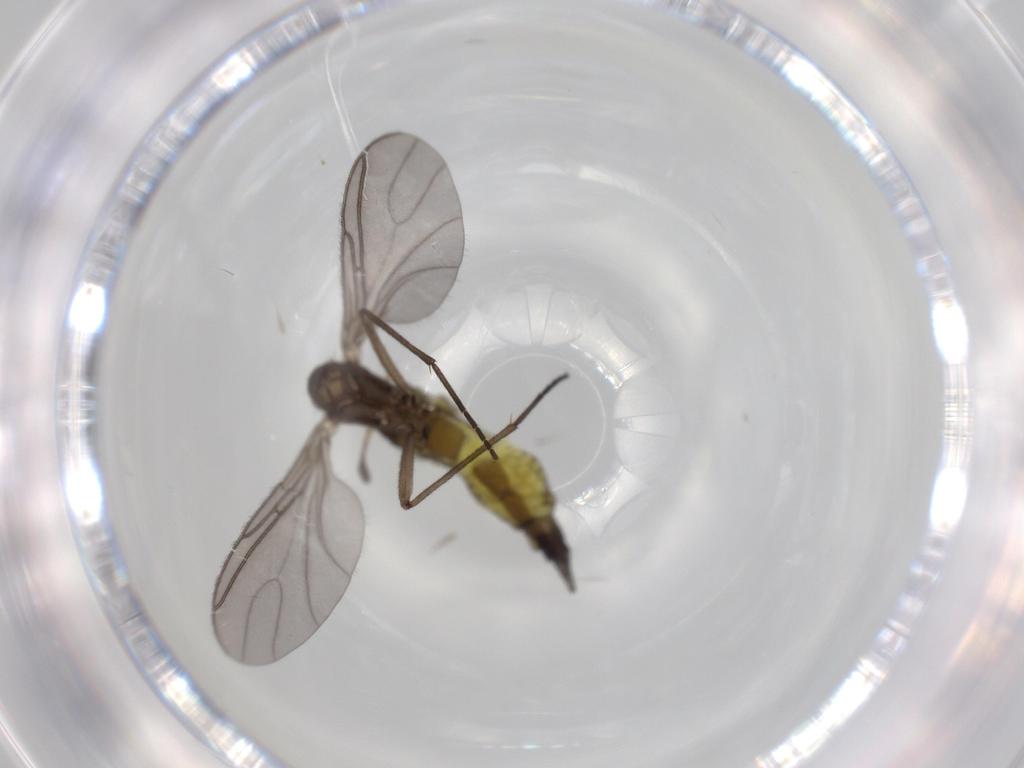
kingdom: Animalia
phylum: Arthropoda
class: Insecta
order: Diptera
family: Sciaridae
